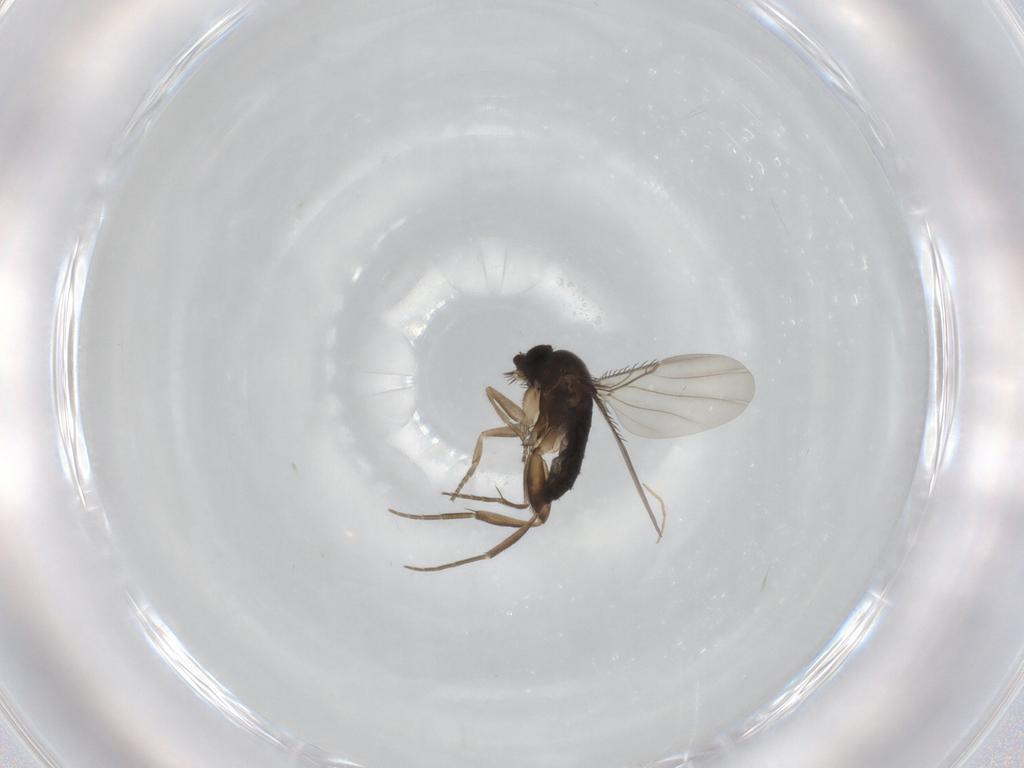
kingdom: Animalia
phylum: Arthropoda
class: Insecta
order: Diptera
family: Phoridae
